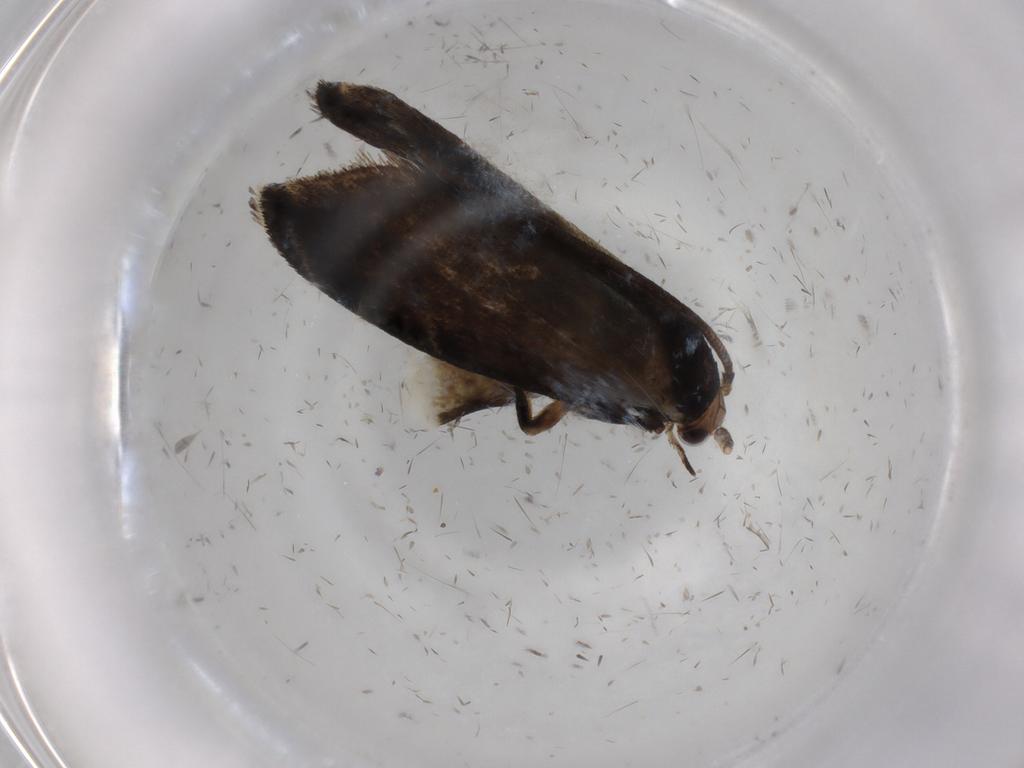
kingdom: Animalia
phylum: Arthropoda
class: Insecta
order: Lepidoptera
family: Tineidae
